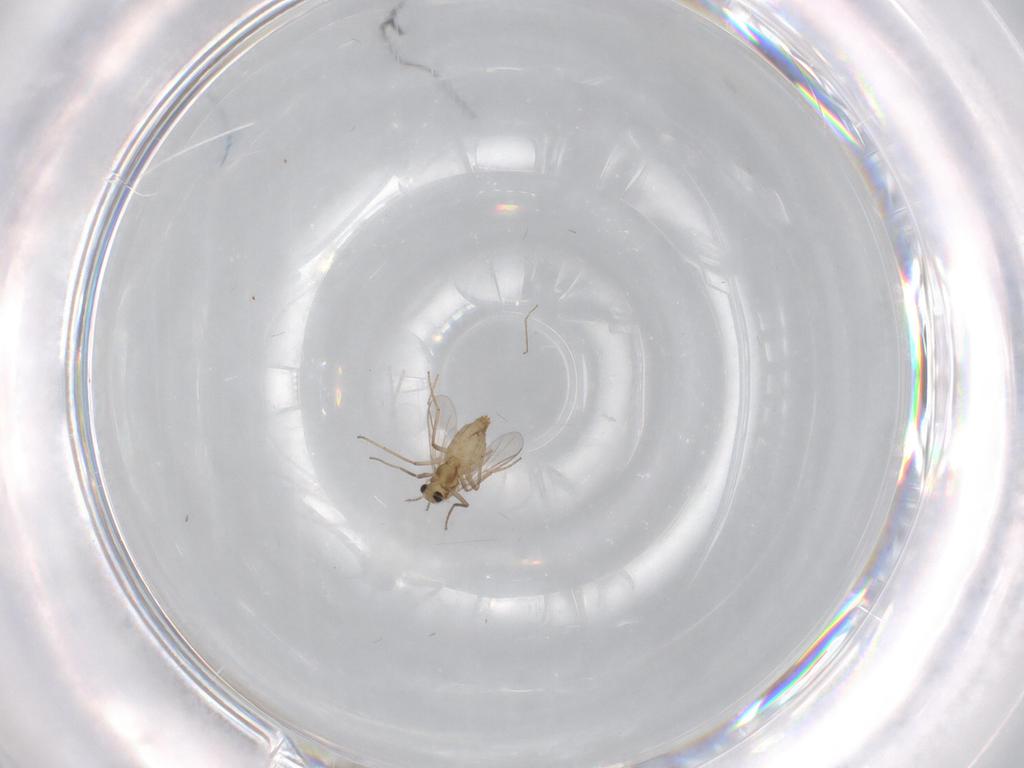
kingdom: Animalia
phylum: Arthropoda
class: Insecta
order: Diptera
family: Chironomidae
